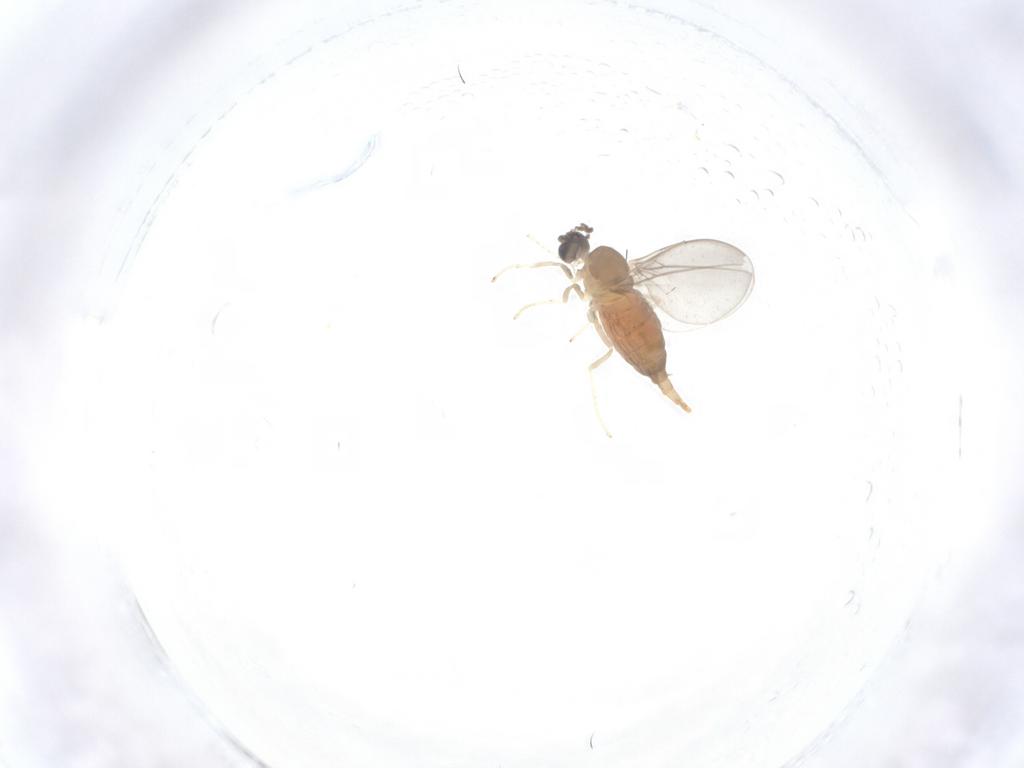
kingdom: Animalia
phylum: Arthropoda
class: Insecta
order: Diptera
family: Cecidomyiidae
